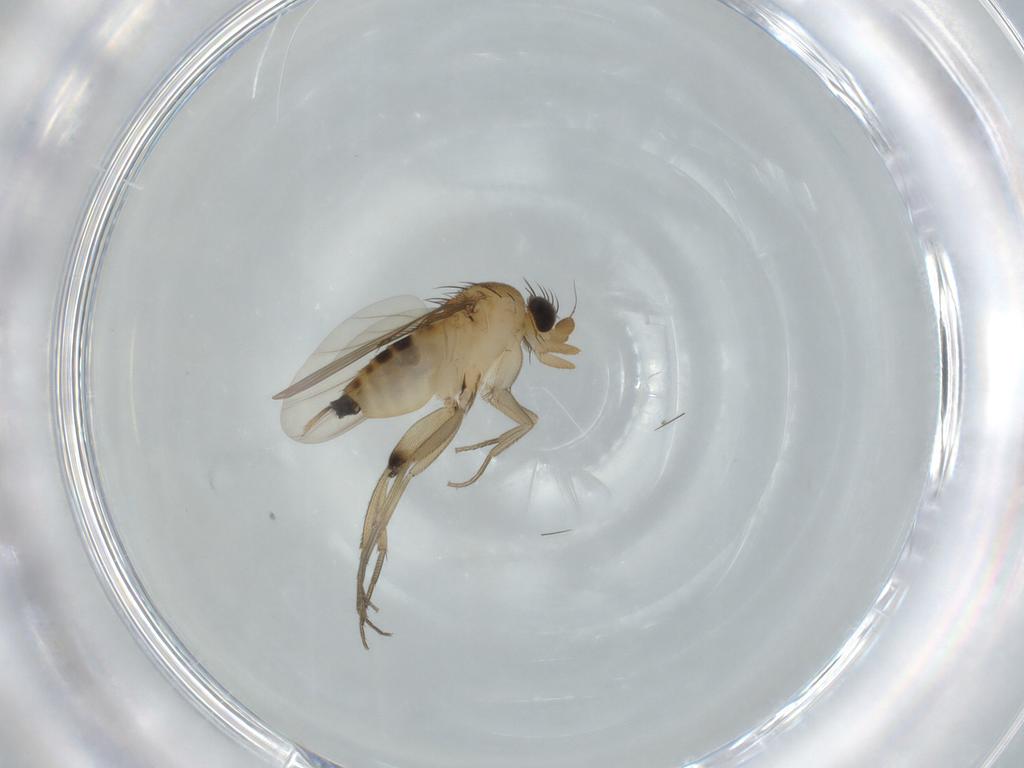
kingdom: Animalia
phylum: Arthropoda
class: Insecta
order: Diptera
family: Phoridae
